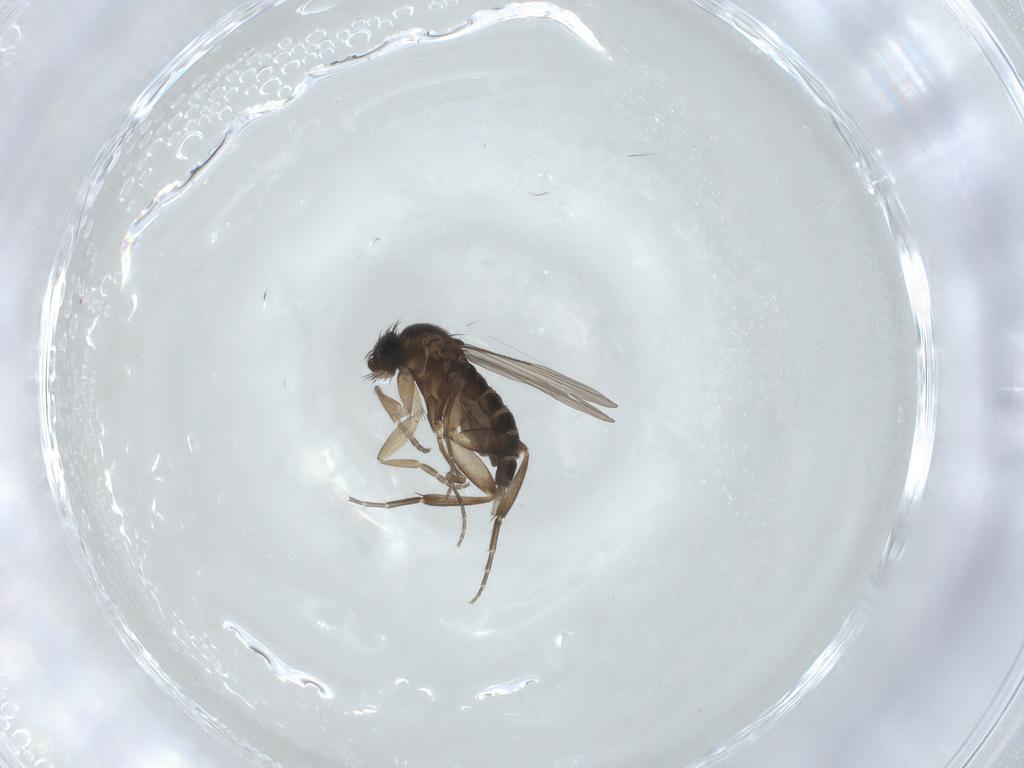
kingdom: Animalia
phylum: Arthropoda
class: Insecta
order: Diptera
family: Phoridae
